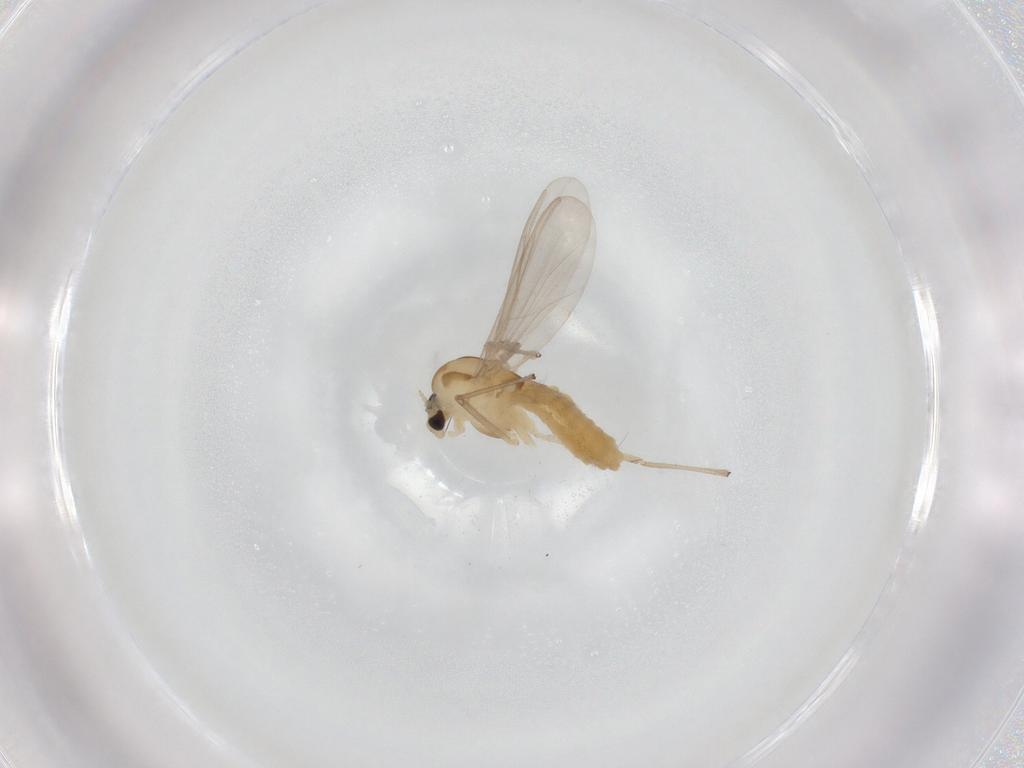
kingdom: Animalia
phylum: Arthropoda
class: Insecta
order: Diptera
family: Chironomidae
